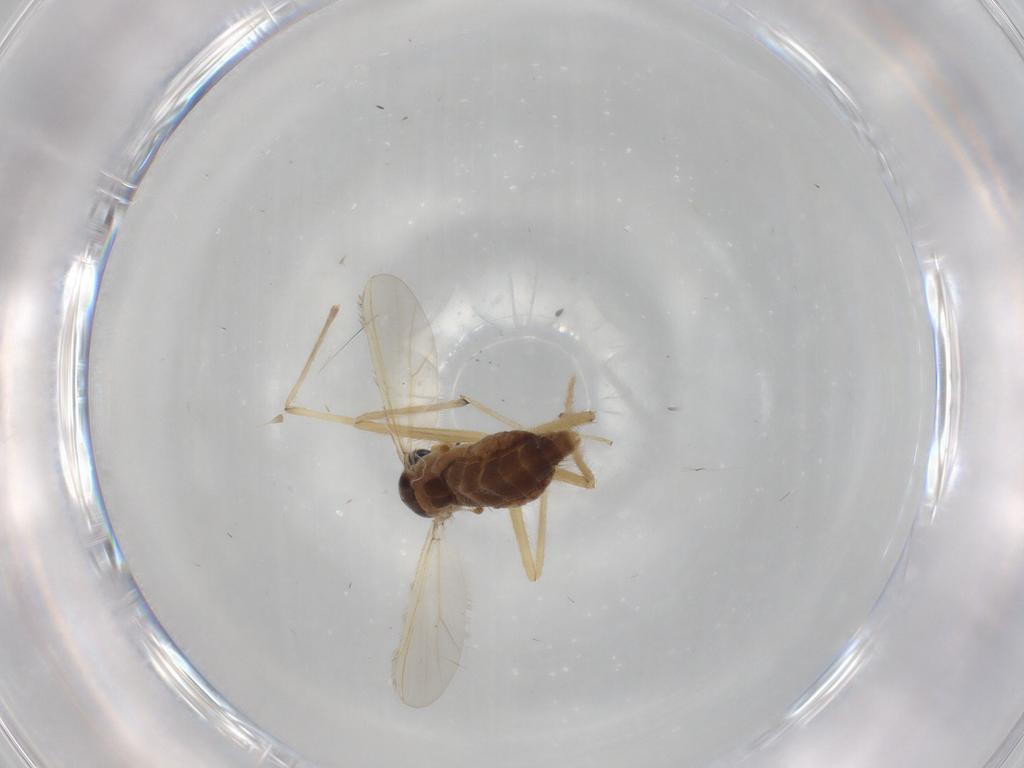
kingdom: Animalia
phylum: Arthropoda
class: Insecta
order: Diptera
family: Chironomidae
